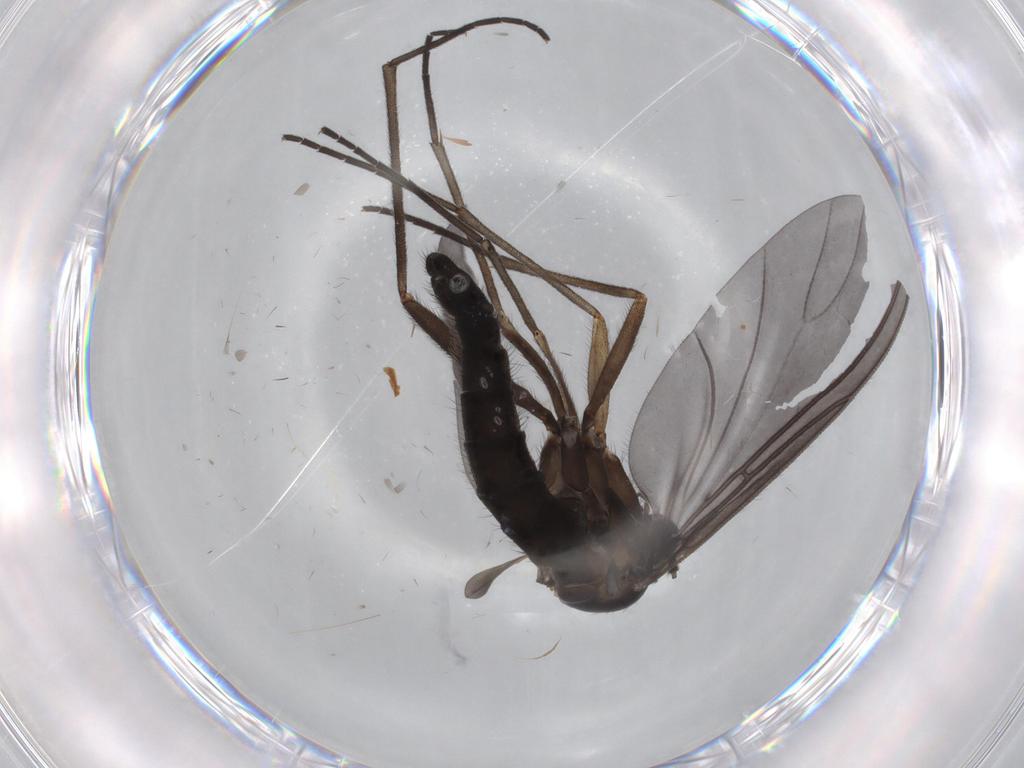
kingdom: Animalia
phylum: Arthropoda
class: Insecta
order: Diptera
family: Sciaridae
